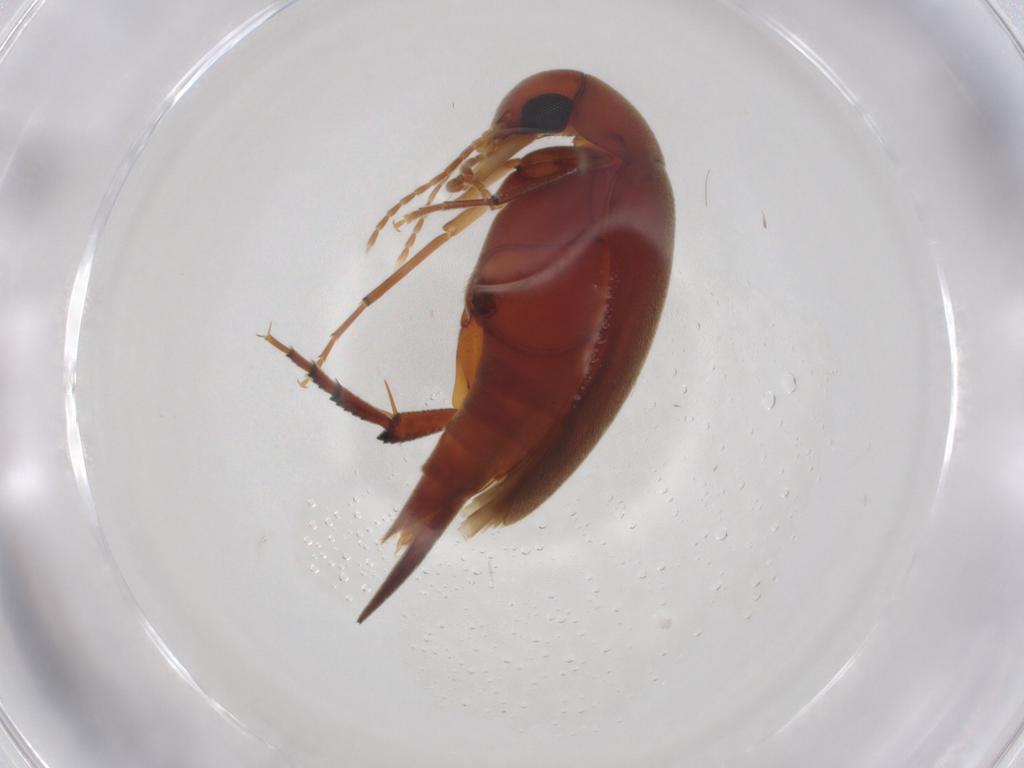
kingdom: Animalia
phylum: Arthropoda
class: Insecta
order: Coleoptera
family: Mordellidae
